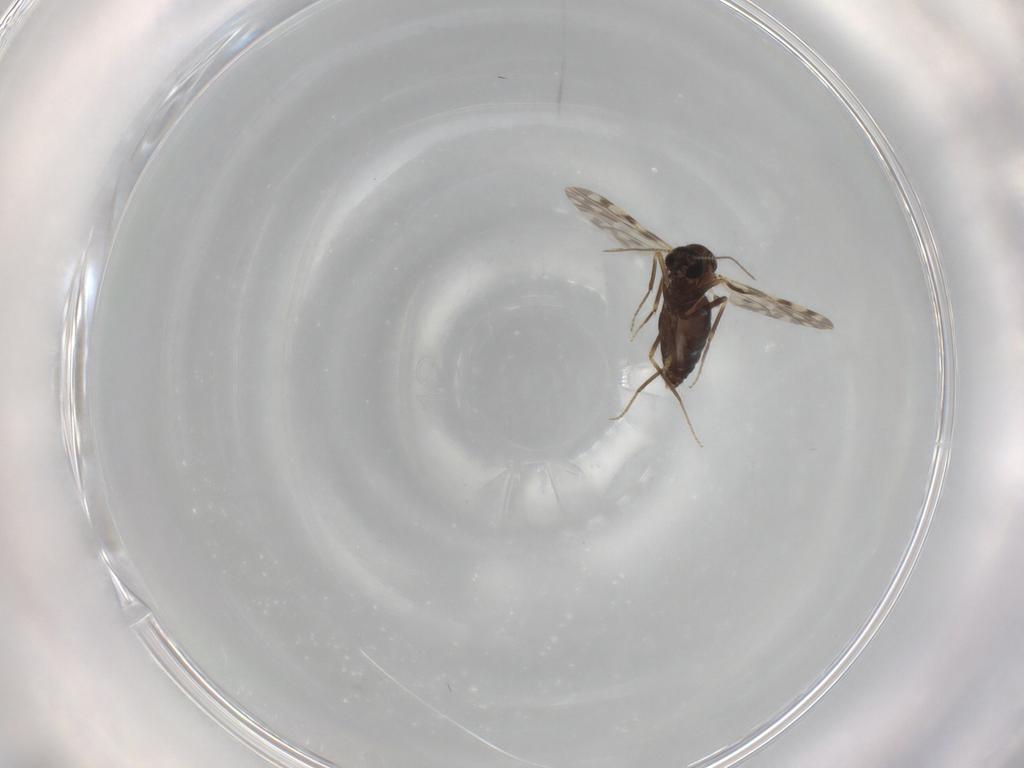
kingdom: Animalia
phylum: Arthropoda
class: Insecta
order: Diptera
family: Ceratopogonidae
